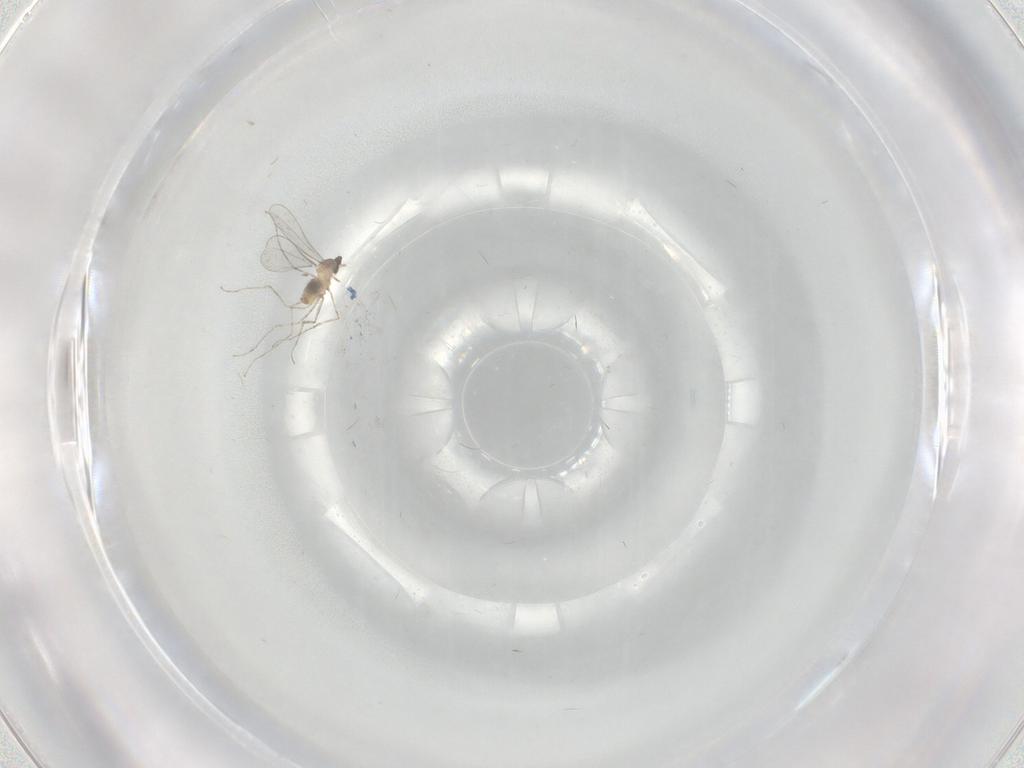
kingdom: Animalia
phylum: Arthropoda
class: Insecta
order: Diptera
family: Cecidomyiidae
